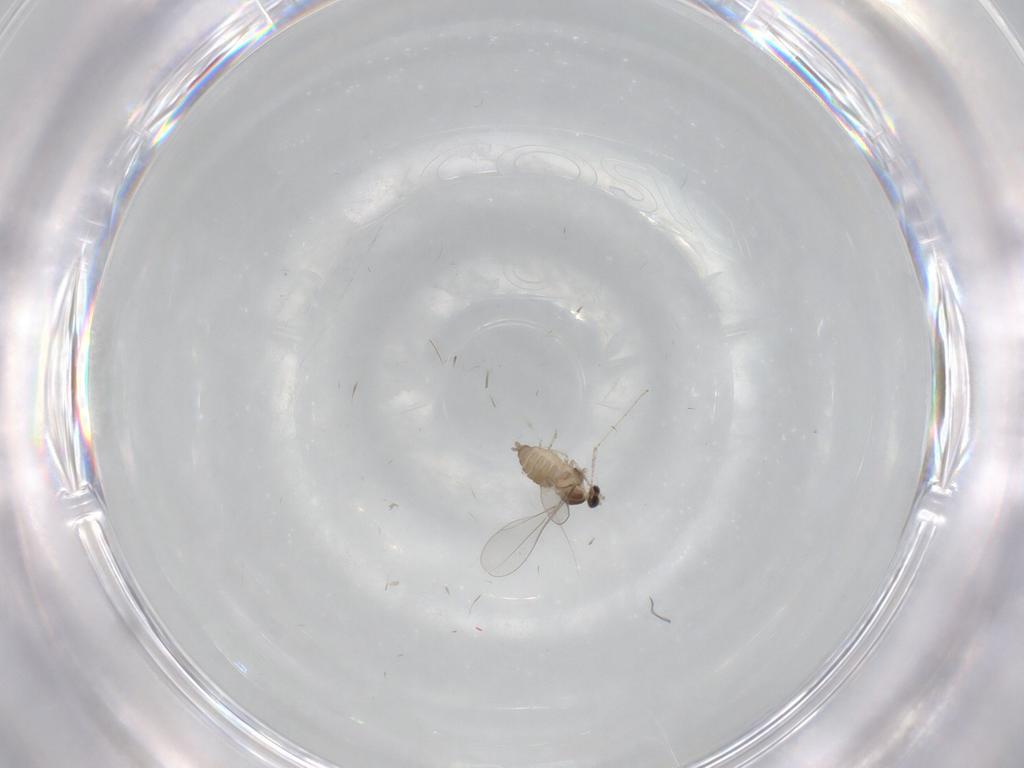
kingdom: Animalia
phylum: Arthropoda
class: Insecta
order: Diptera
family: Cecidomyiidae
